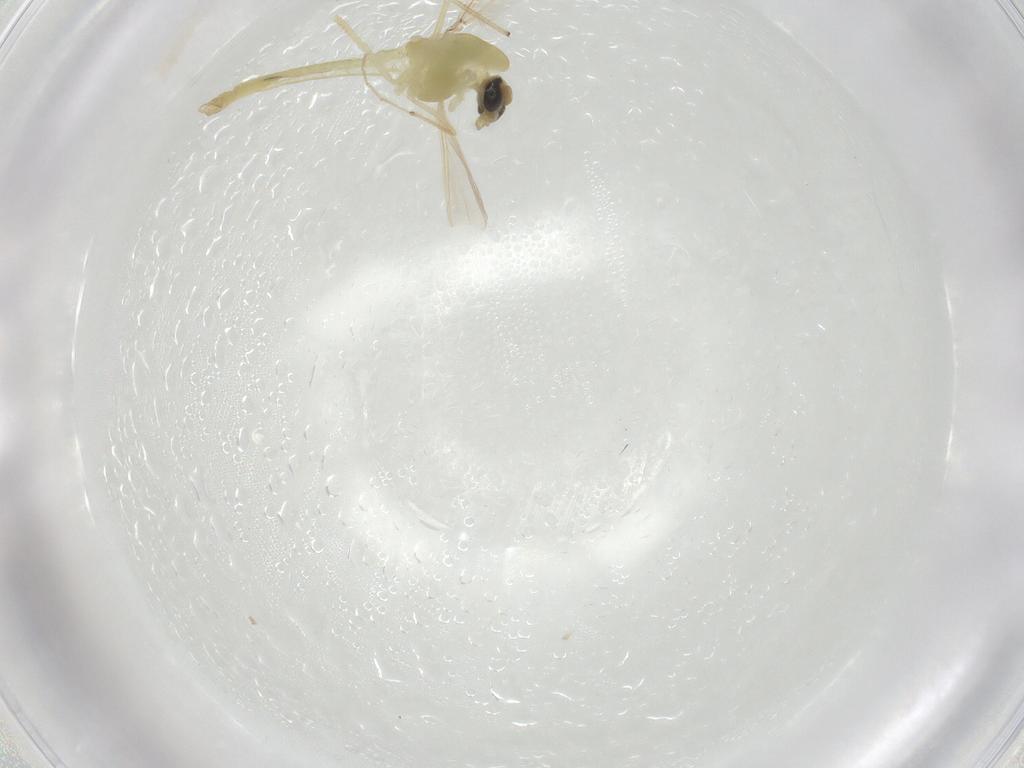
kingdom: Animalia
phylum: Arthropoda
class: Insecta
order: Diptera
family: Chironomidae
